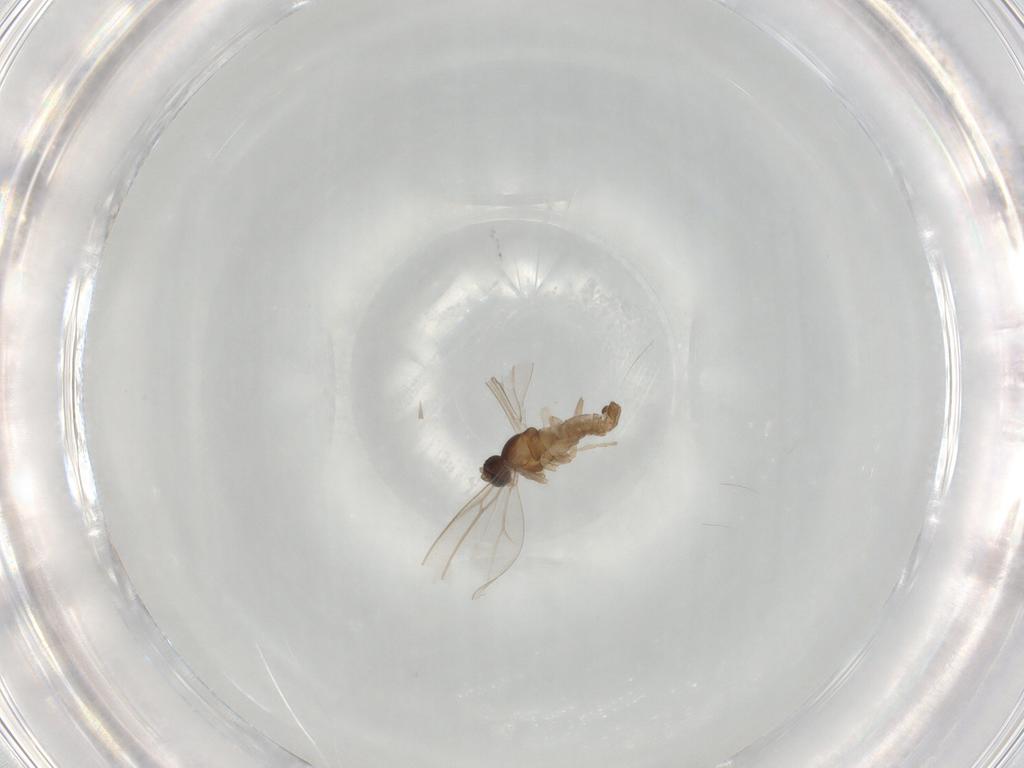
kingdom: Animalia
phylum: Arthropoda
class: Insecta
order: Diptera
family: Cecidomyiidae
